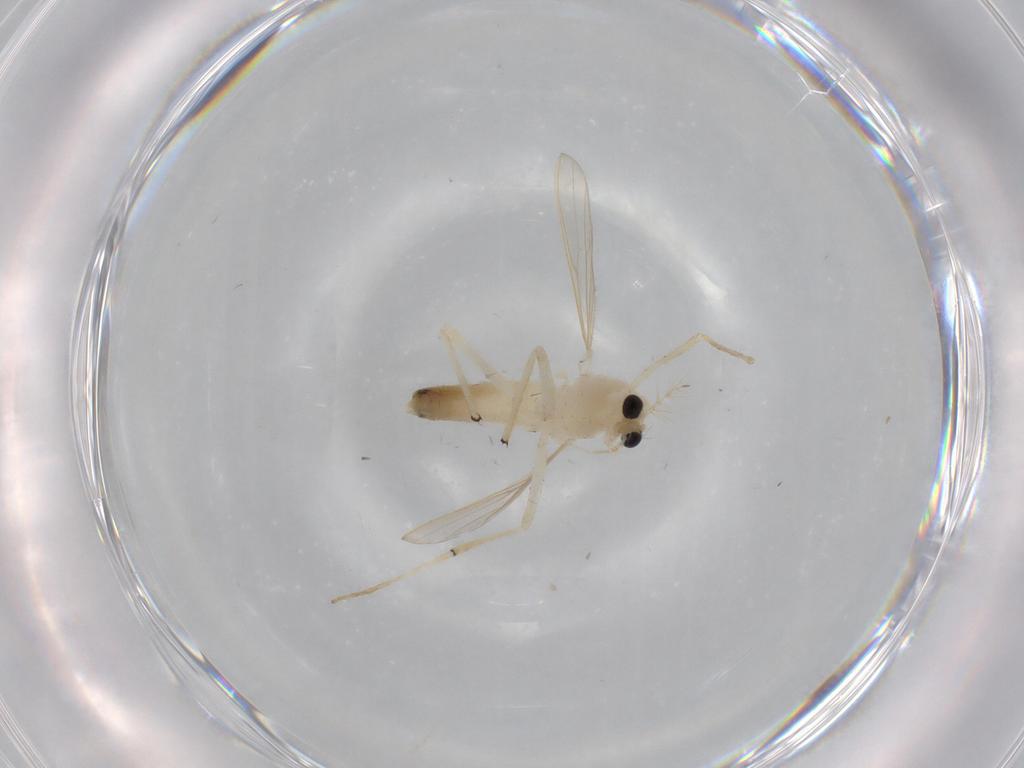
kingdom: Animalia
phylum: Arthropoda
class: Insecta
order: Diptera
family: Chironomidae
